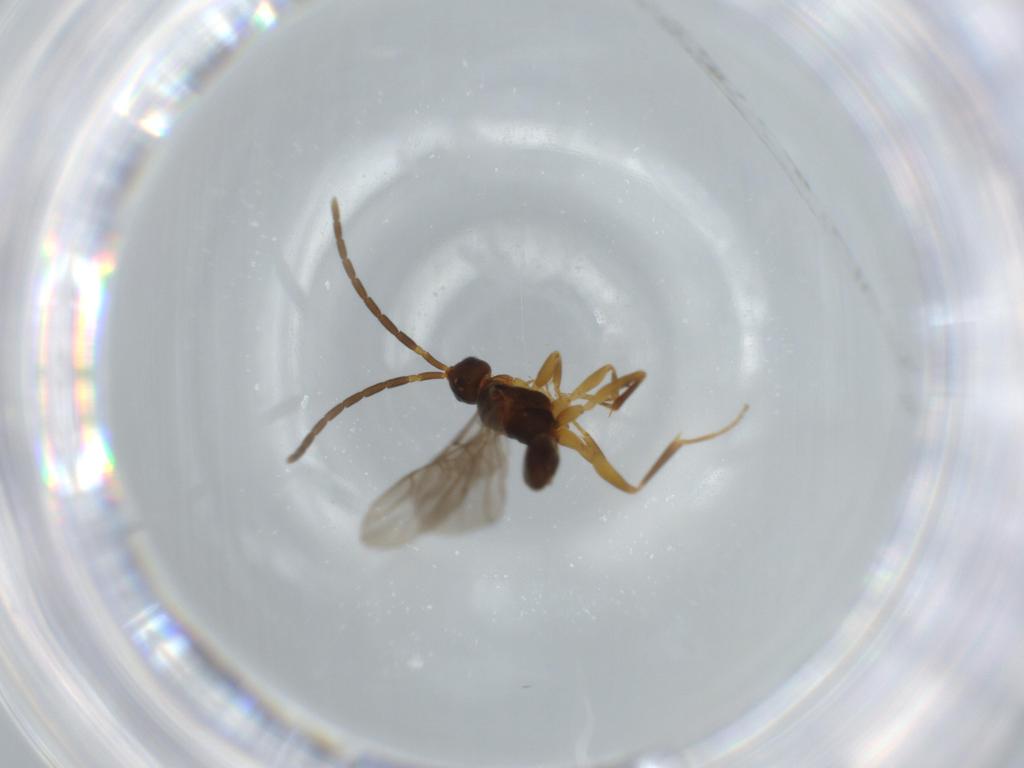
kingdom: Animalia
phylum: Arthropoda
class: Insecta
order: Hymenoptera
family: Embolemidae
